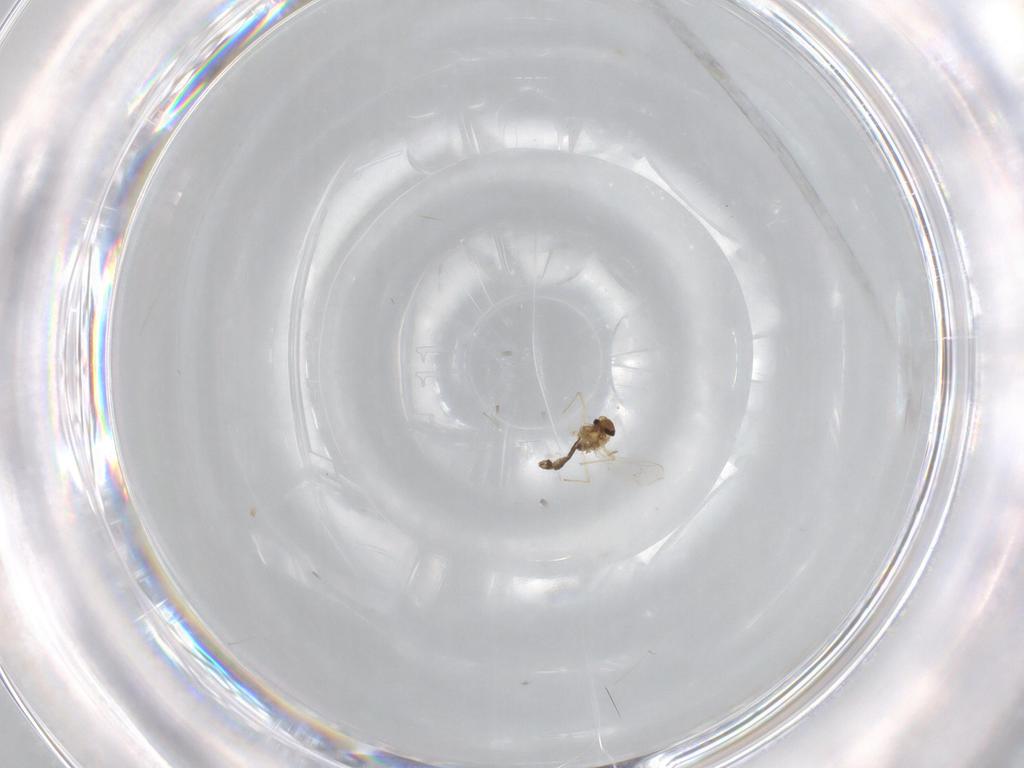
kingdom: Animalia
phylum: Arthropoda
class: Insecta
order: Diptera
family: Chironomidae
